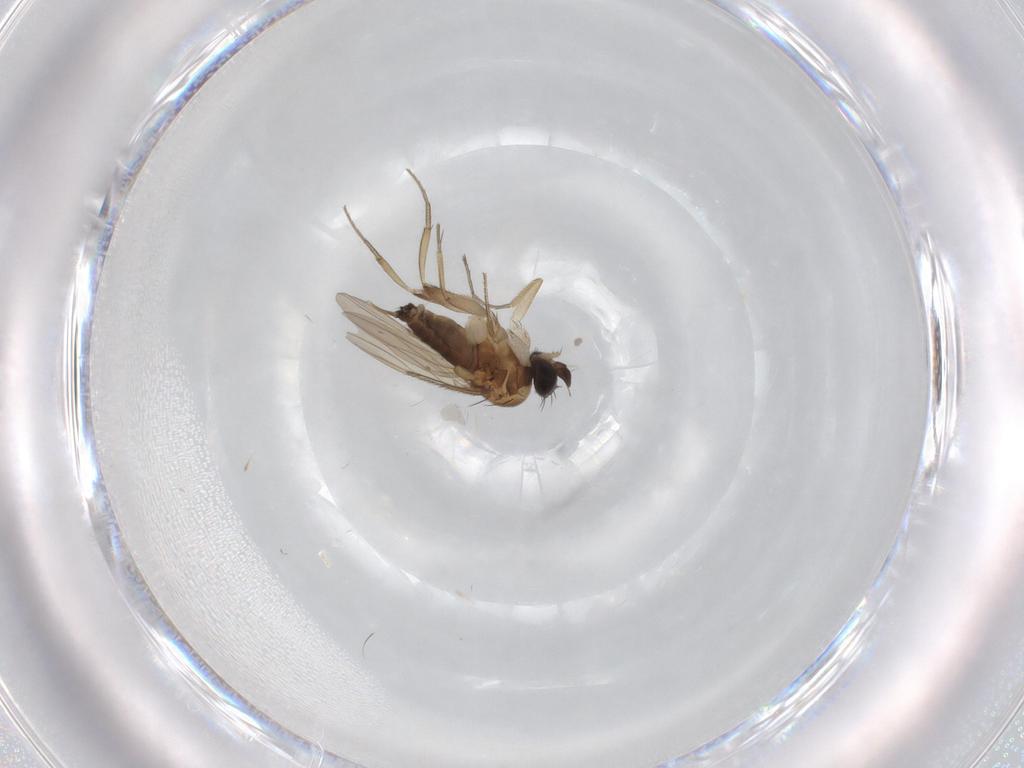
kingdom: Animalia
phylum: Arthropoda
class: Insecta
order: Diptera
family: Phoridae
